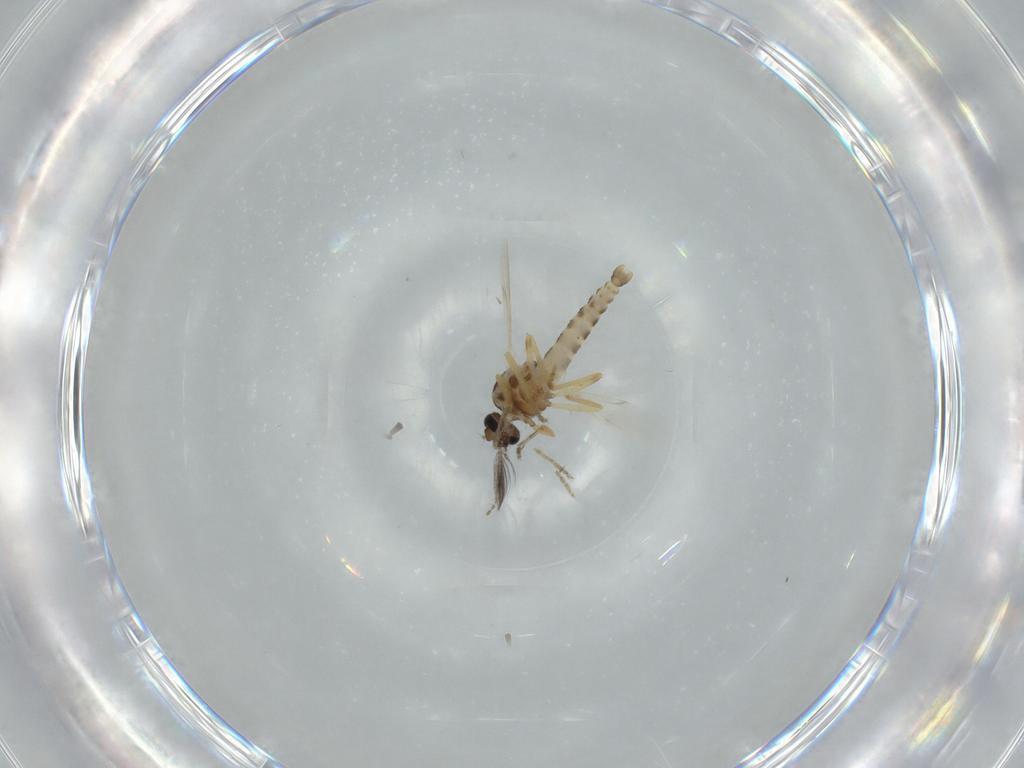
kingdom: Animalia
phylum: Arthropoda
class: Insecta
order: Diptera
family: Ceratopogonidae
